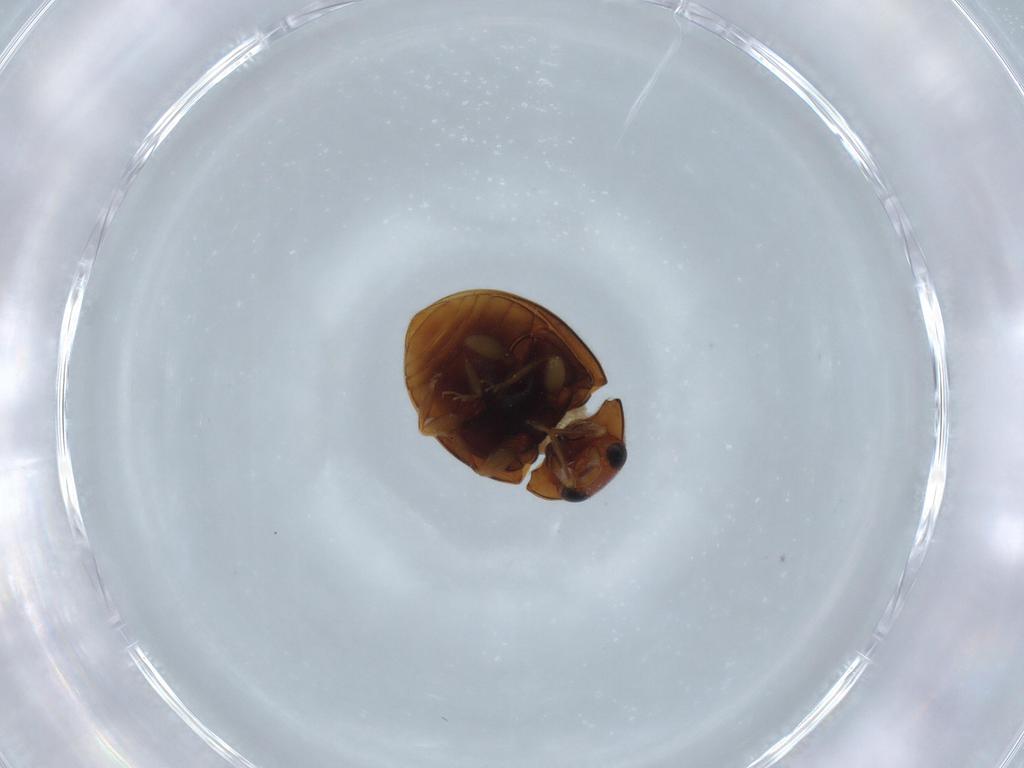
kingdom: Animalia
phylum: Arthropoda
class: Insecta
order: Coleoptera
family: Coccinellidae
